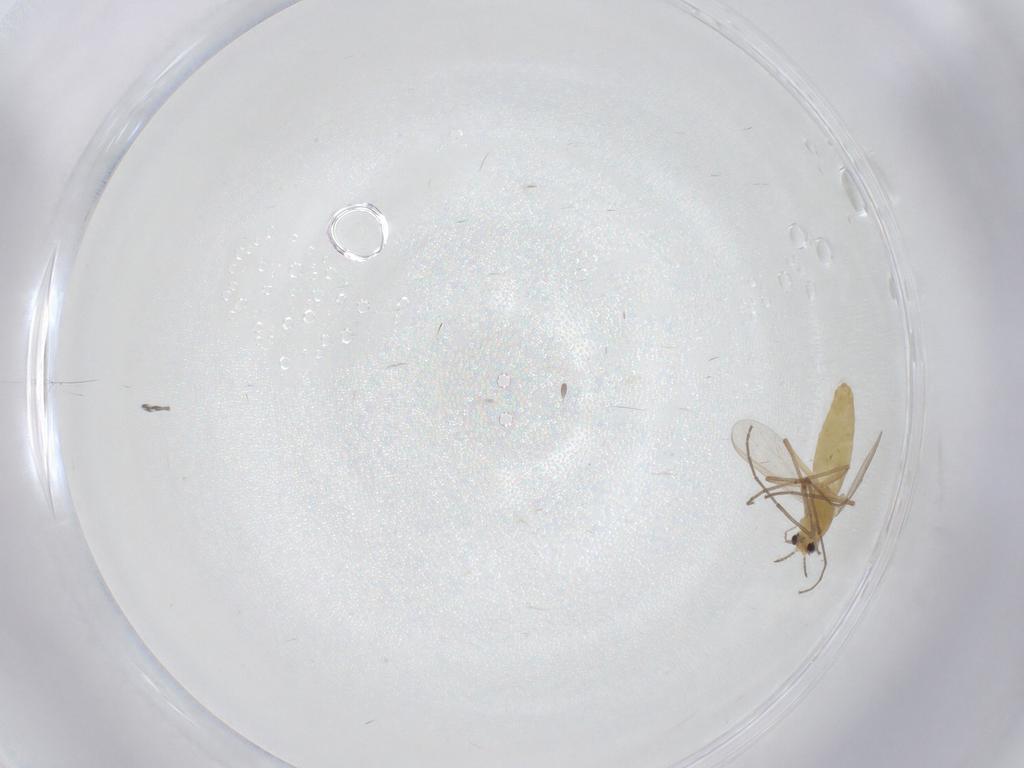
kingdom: Animalia
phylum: Arthropoda
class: Insecta
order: Diptera
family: Chironomidae
